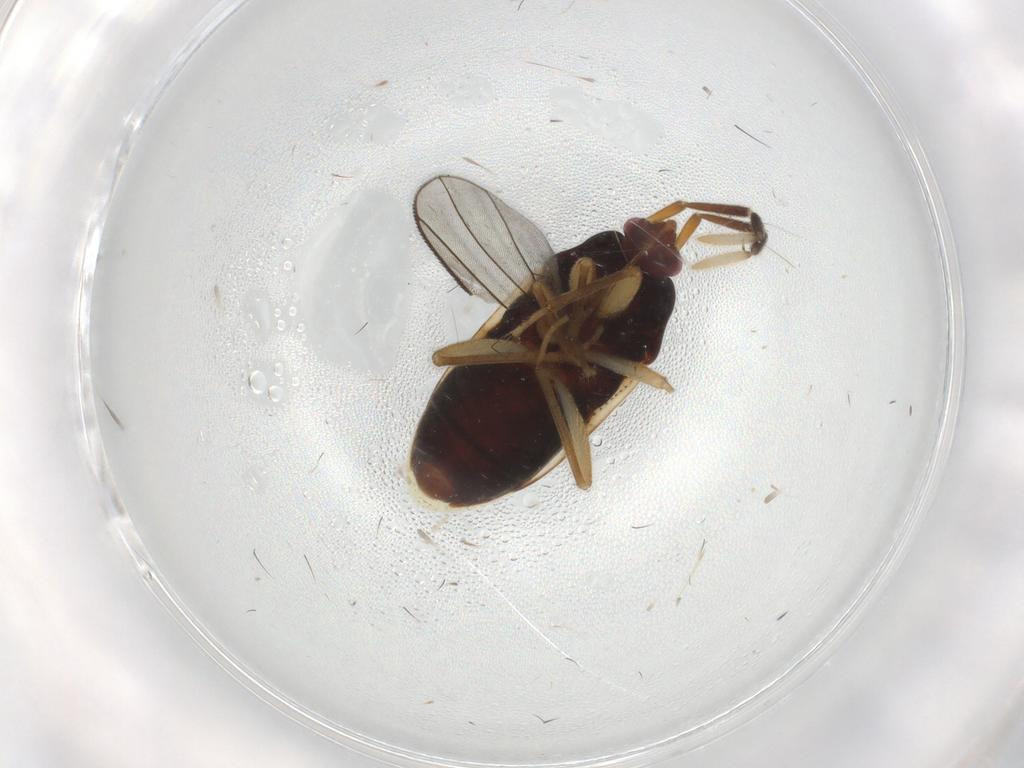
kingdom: Animalia
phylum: Arthropoda
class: Insecta
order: Hemiptera
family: Rhyparochromidae
